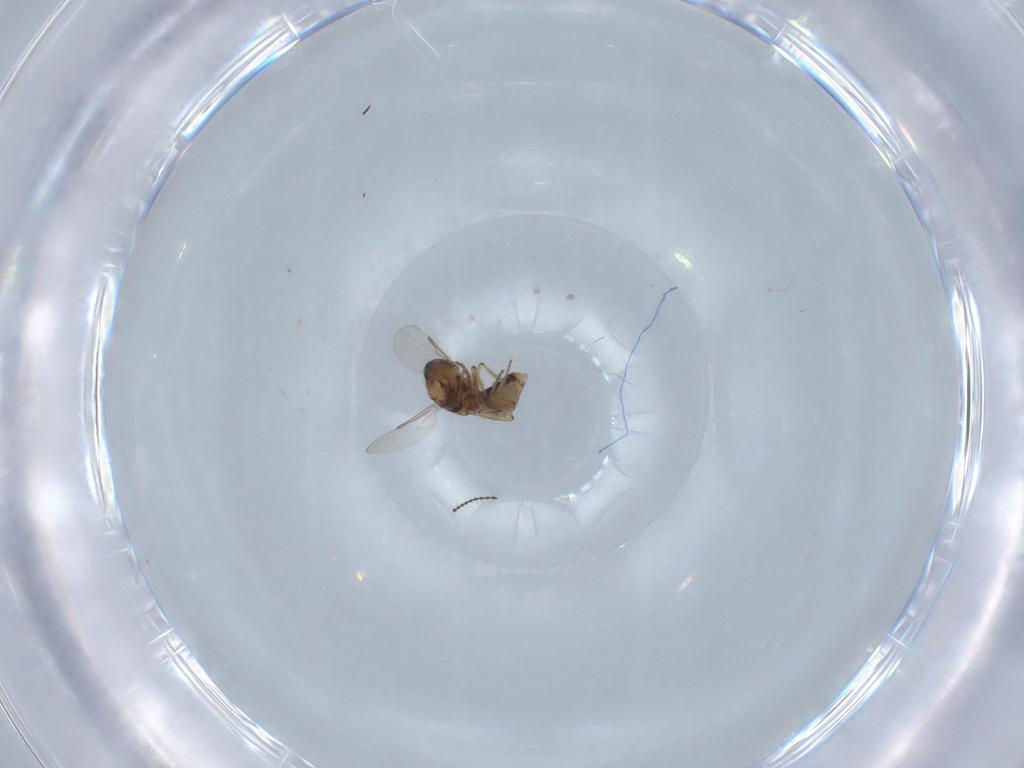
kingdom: Animalia
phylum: Arthropoda
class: Insecta
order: Diptera
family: Ceratopogonidae
